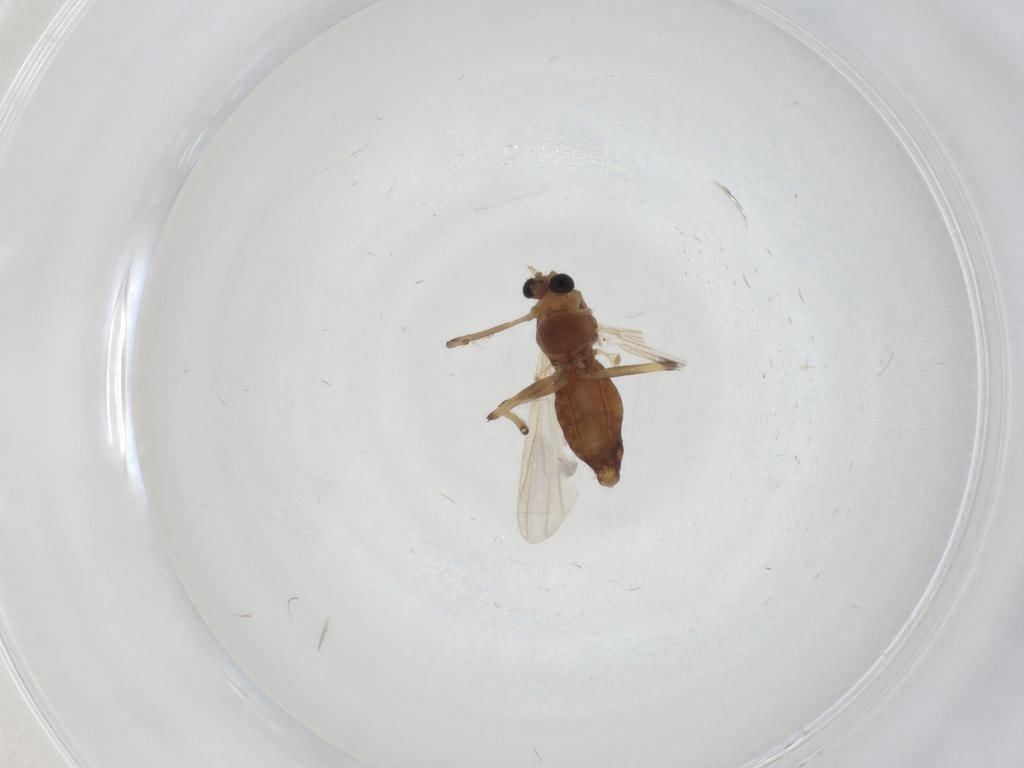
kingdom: Animalia
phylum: Arthropoda
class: Insecta
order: Diptera
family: Chironomidae
